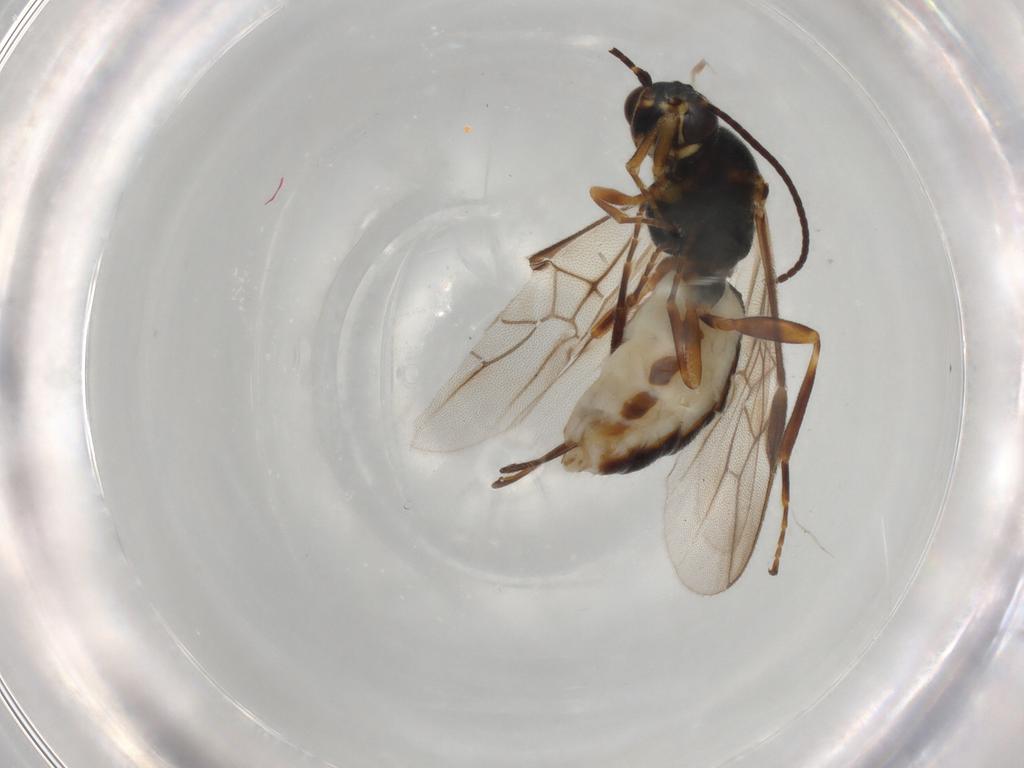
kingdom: Animalia
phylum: Arthropoda
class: Insecta
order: Hymenoptera
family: Braconidae
